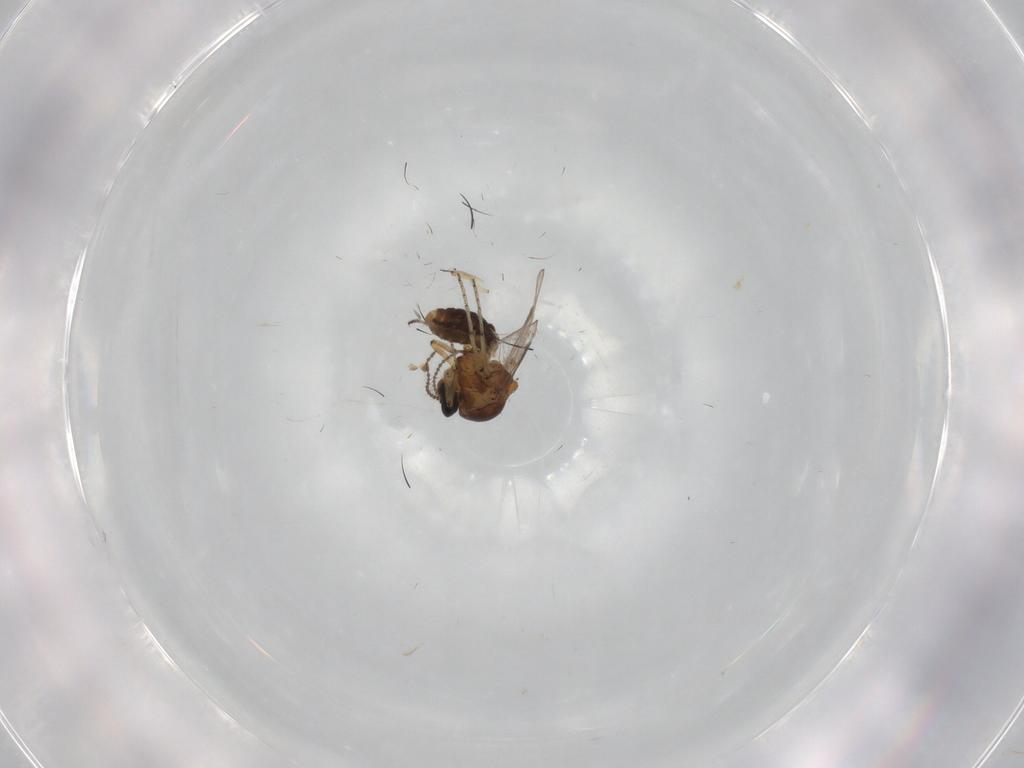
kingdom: Animalia
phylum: Arthropoda
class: Insecta
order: Diptera
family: Ceratopogonidae
